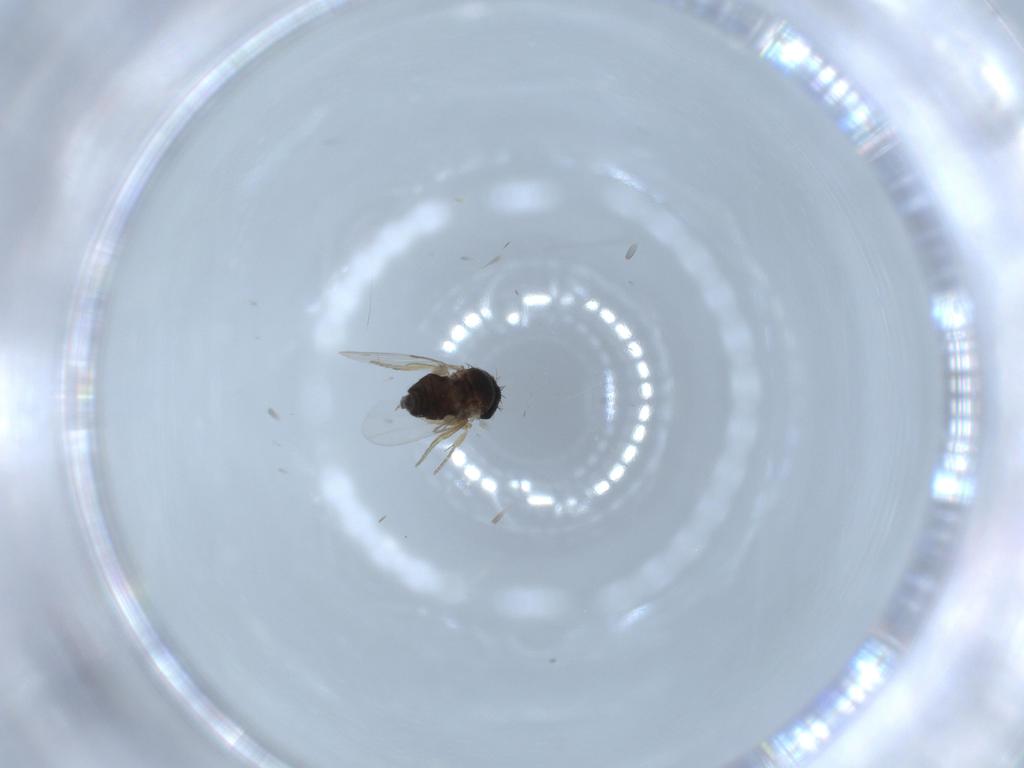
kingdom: Animalia
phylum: Arthropoda
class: Insecta
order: Diptera
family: Phoridae
